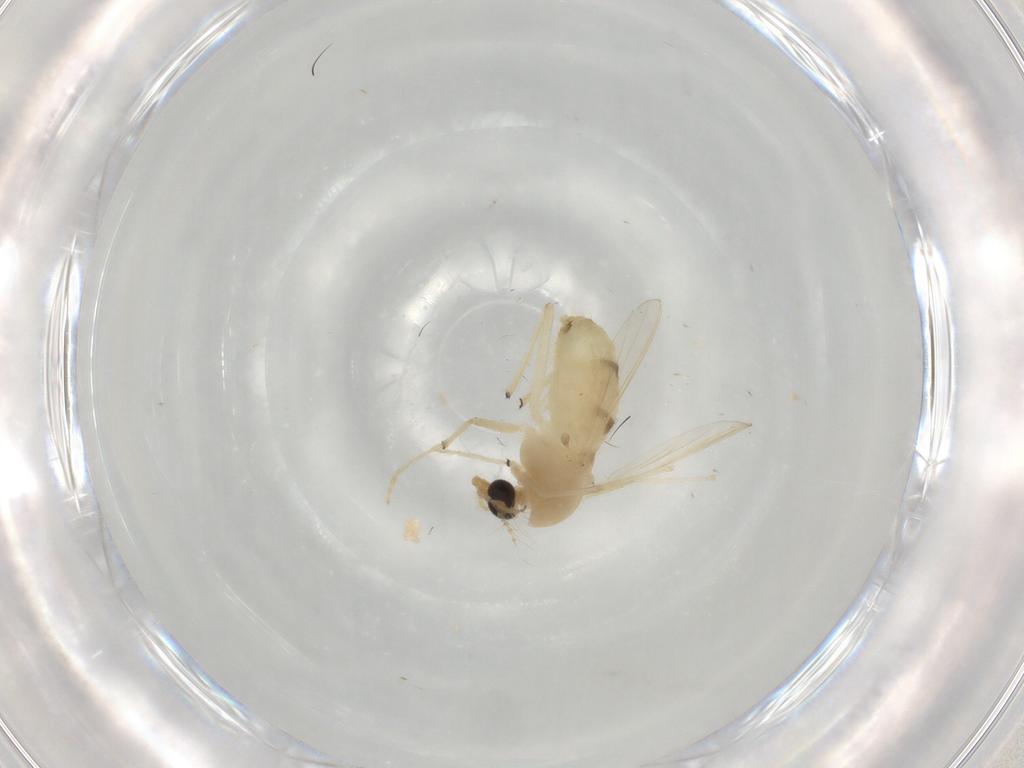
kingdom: Animalia
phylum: Arthropoda
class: Insecta
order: Diptera
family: Chironomidae
